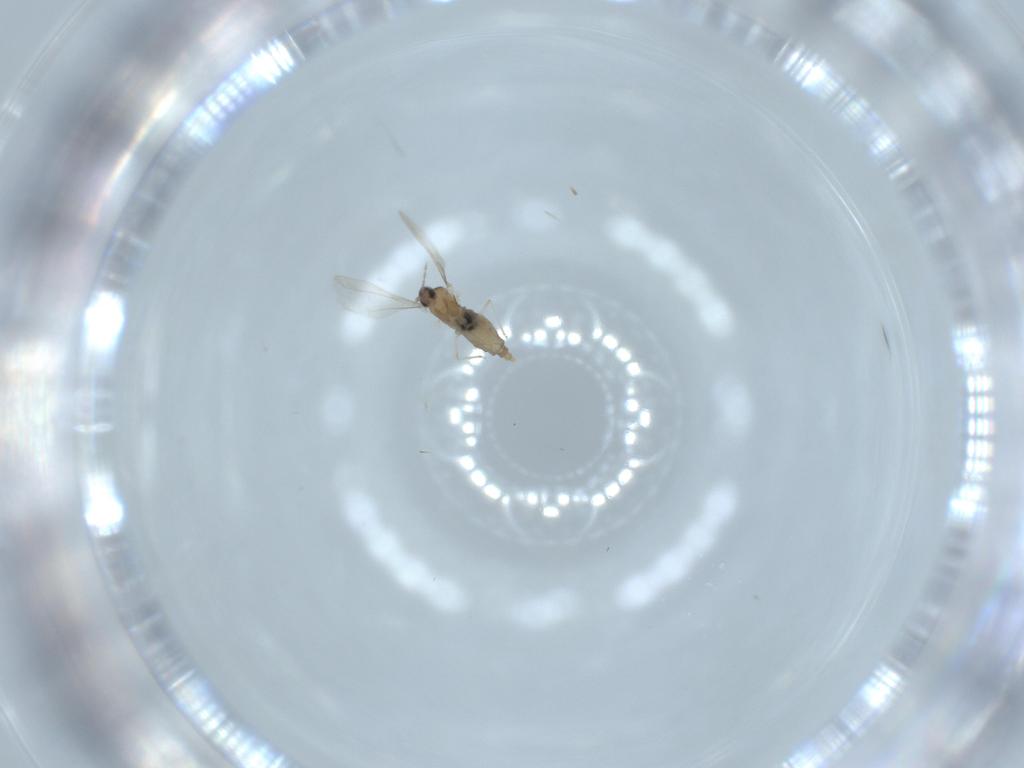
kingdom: Animalia
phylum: Arthropoda
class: Insecta
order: Diptera
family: Cecidomyiidae
